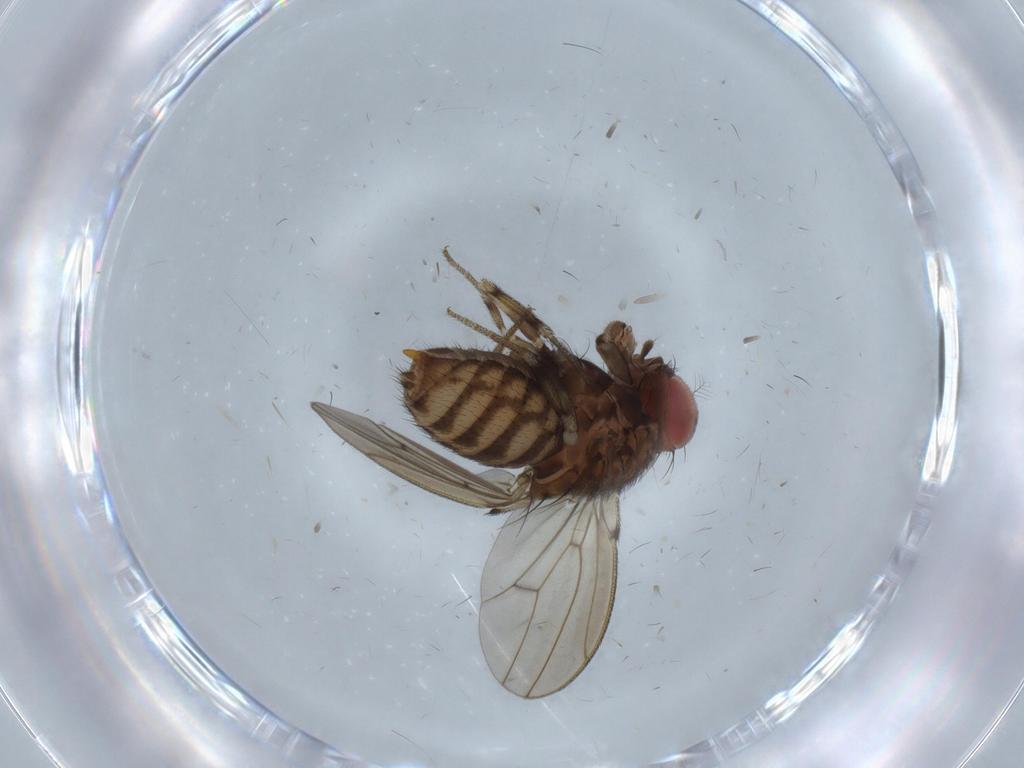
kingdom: Animalia
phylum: Arthropoda
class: Insecta
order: Diptera
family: Drosophilidae
